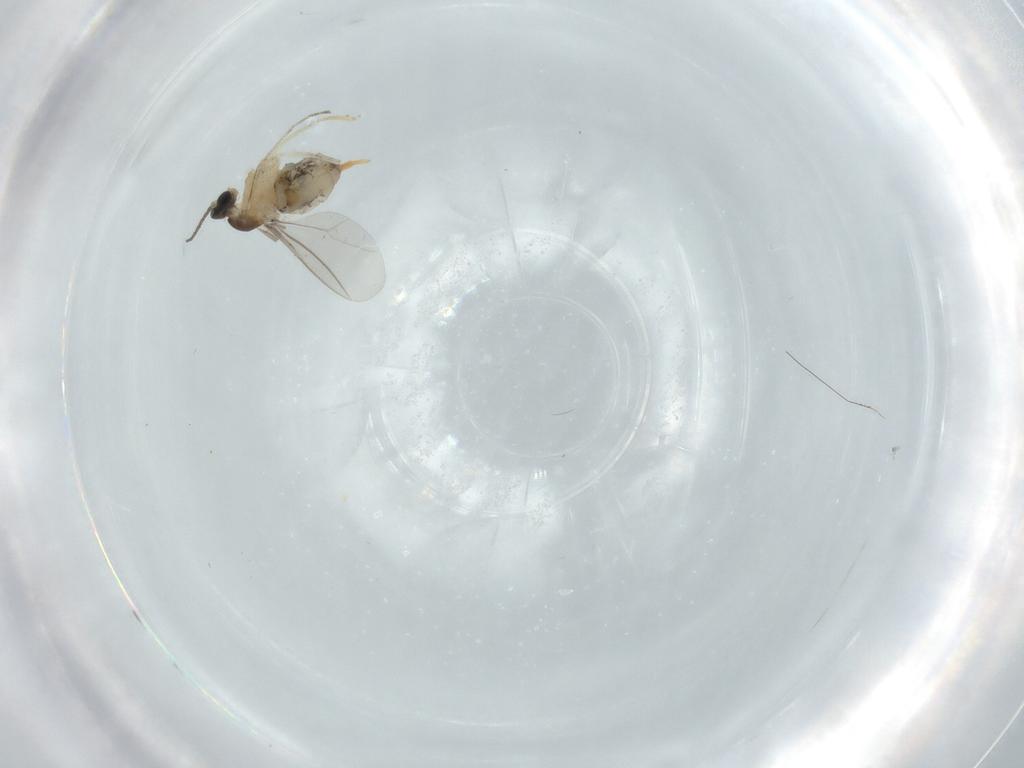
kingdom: Animalia
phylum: Arthropoda
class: Insecta
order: Diptera
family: Cecidomyiidae
